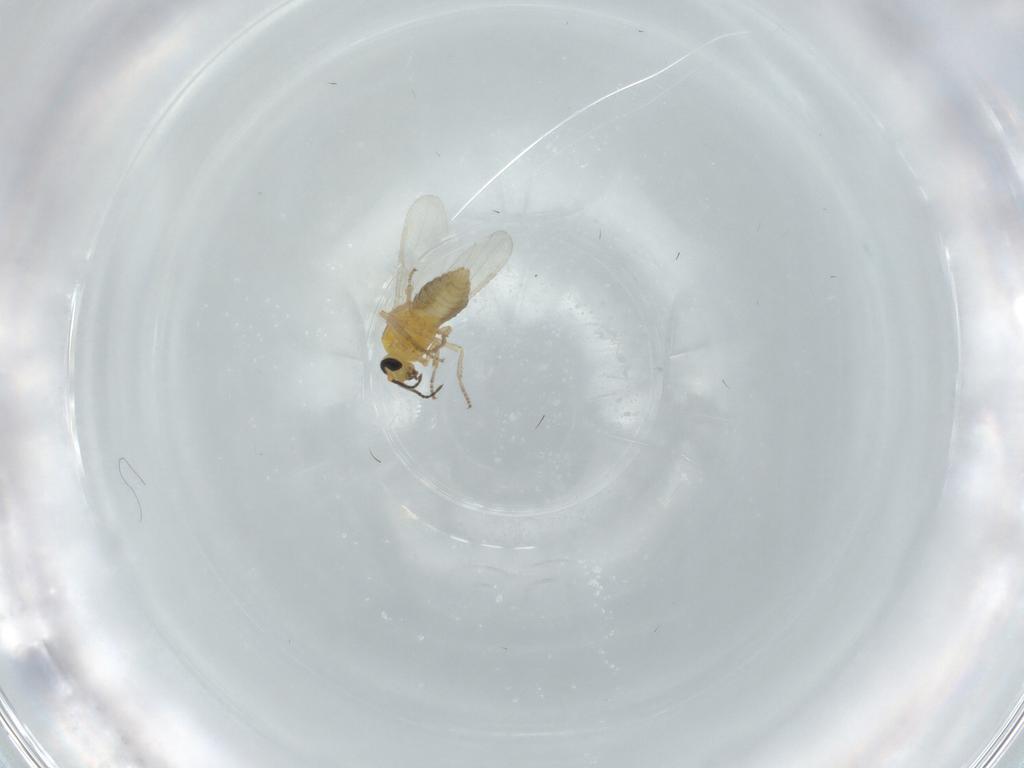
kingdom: Animalia
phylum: Arthropoda
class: Insecta
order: Diptera
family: Ceratopogonidae
